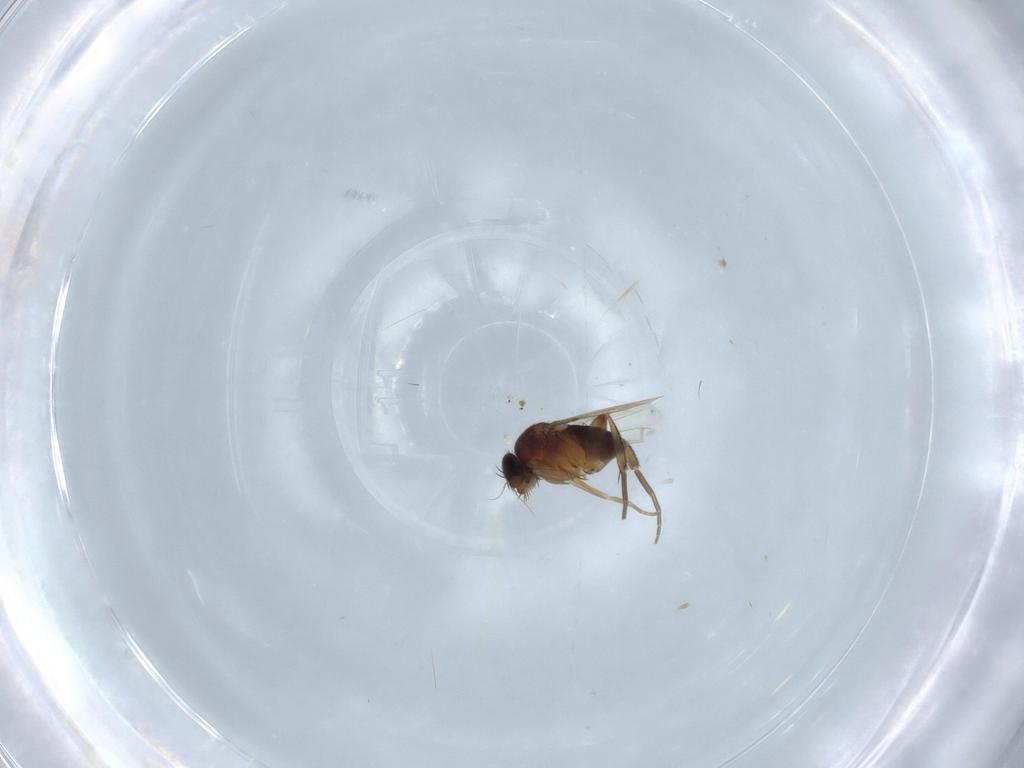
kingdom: Animalia
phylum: Arthropoda
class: Insecta
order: Diptera
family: Ceratopogonidae
